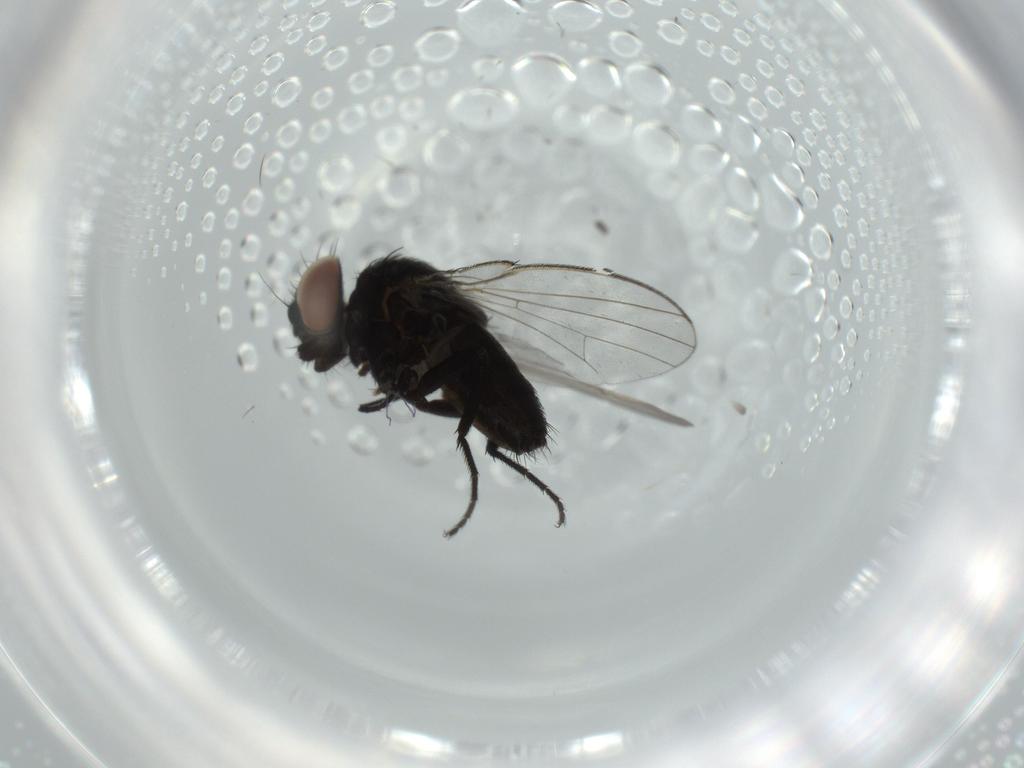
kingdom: Animalia
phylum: Arthropoda
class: Insecta
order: Diptera
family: Milichiidae
